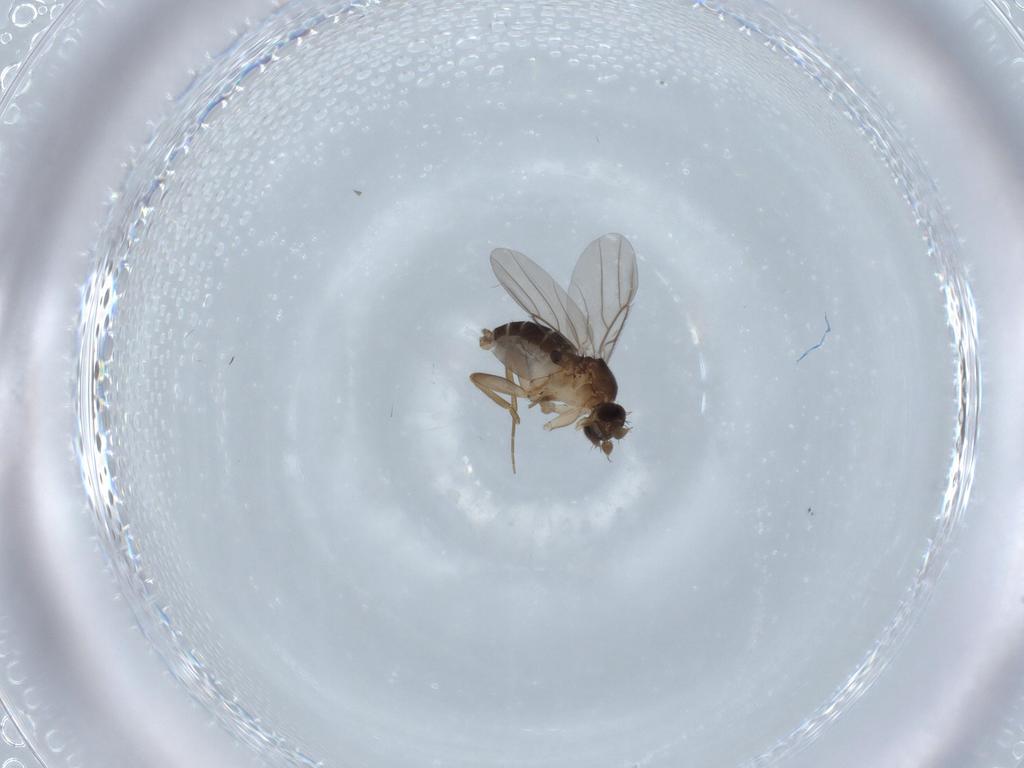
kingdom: Animalia
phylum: Arthropoda
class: Insecta
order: Diptera
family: Phoridae
